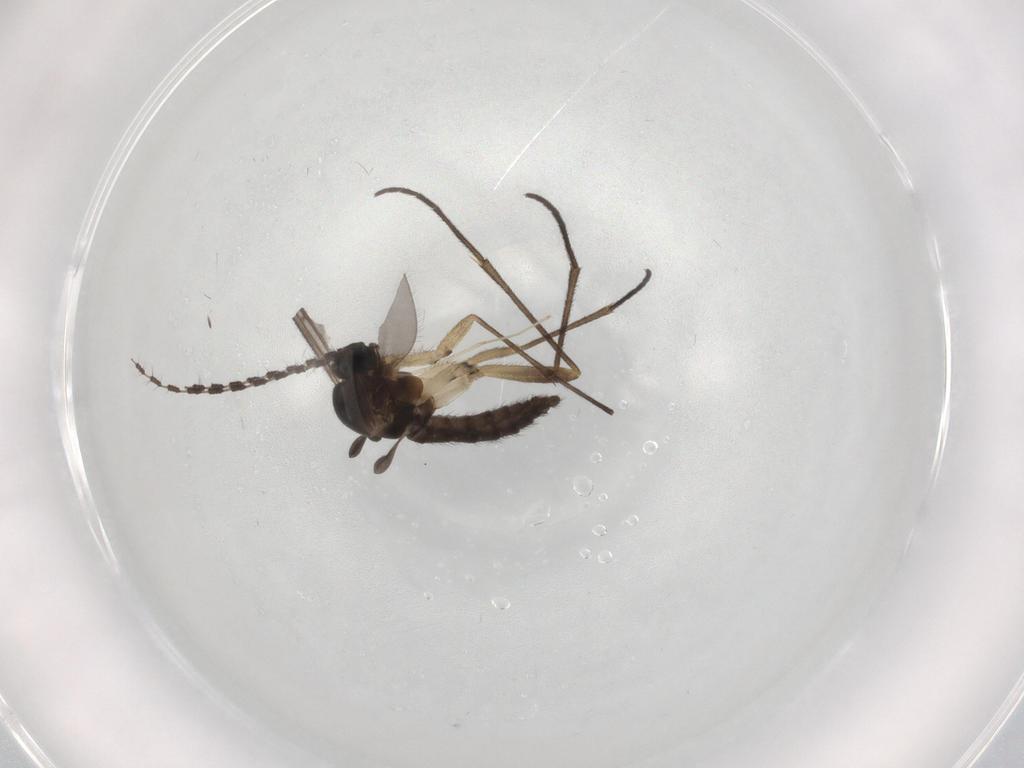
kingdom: Animalia
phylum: Arthropoda
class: Insecta
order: Diptera
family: Sciaridae
